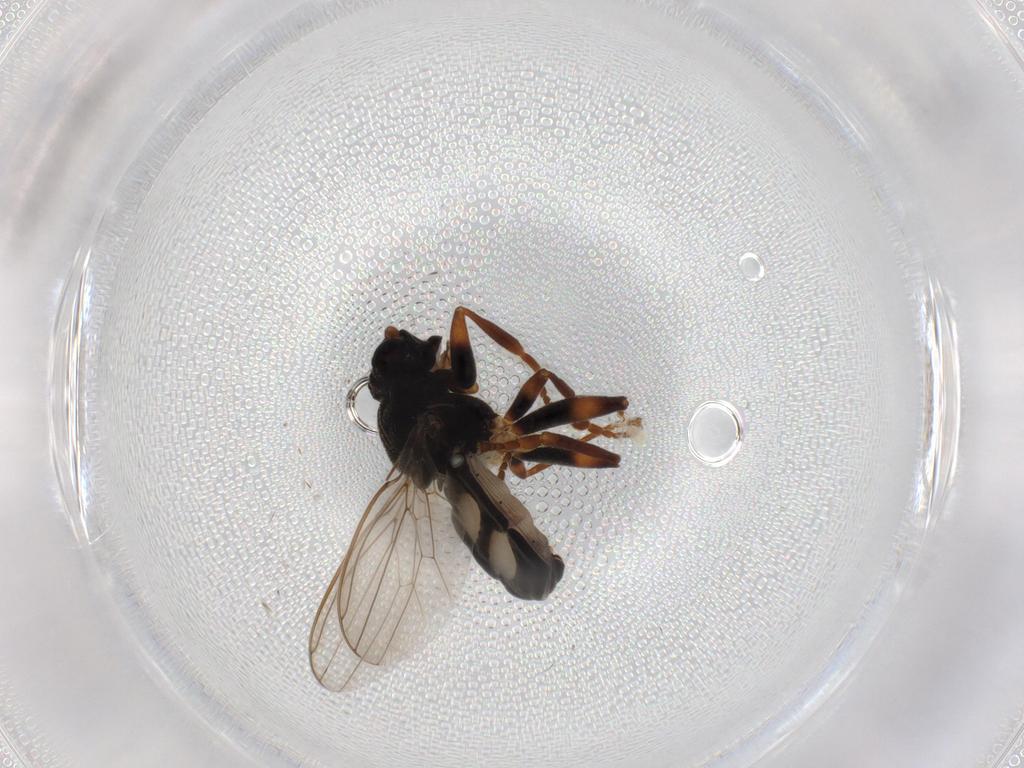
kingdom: Animalia
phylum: Arthropoda
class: Insecta
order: Diptera
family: Sphaeroceridae
